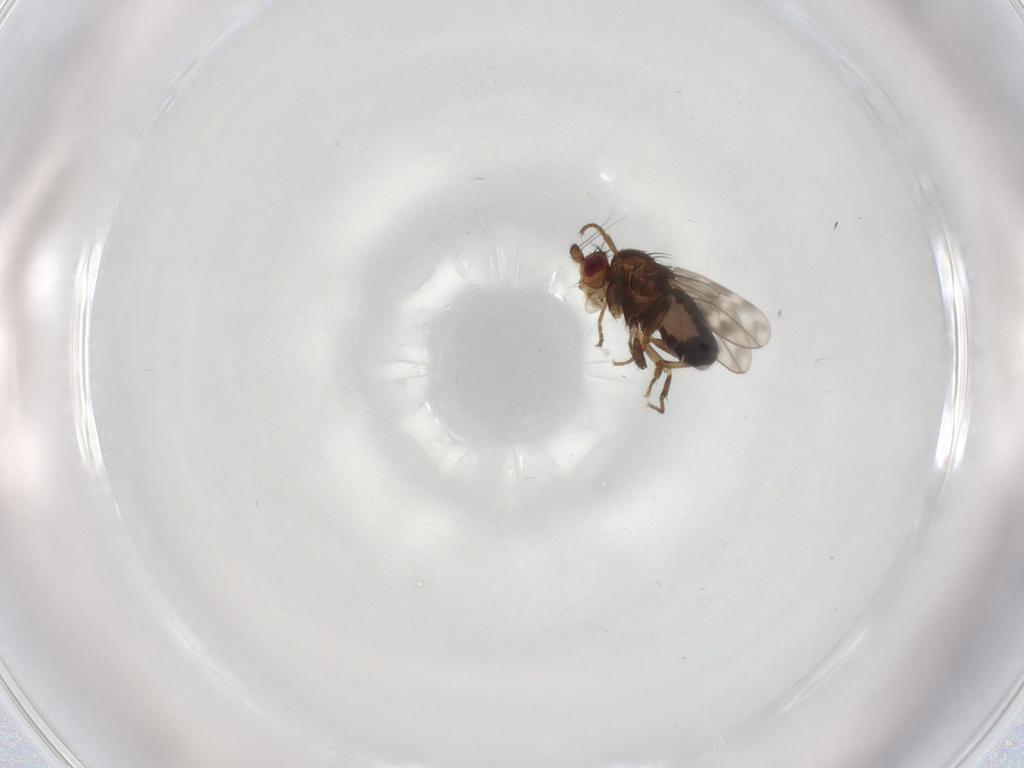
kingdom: Animalia
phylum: Arthropoda
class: Insecta
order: Diptera
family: Sphaeroceridae
